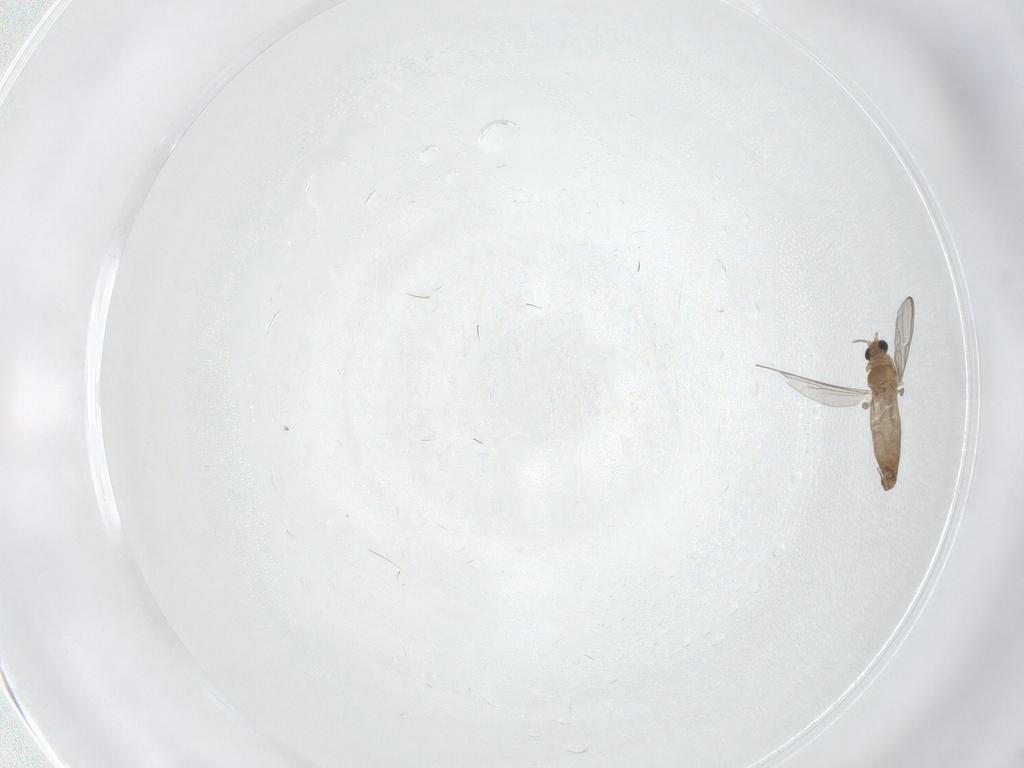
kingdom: Animalia
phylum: Arthropoda
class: Insecta
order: Diptera
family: Chironomidae
